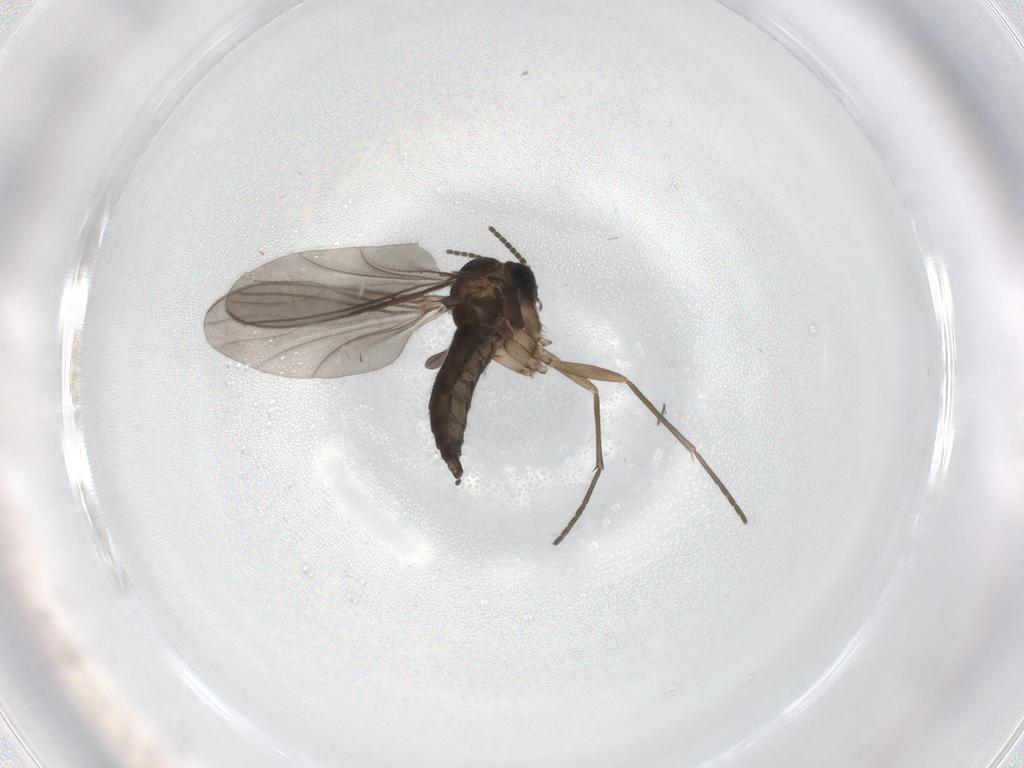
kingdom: Animalia
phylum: Arthropoda
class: Insecta
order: Diptera
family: Sciaridae
